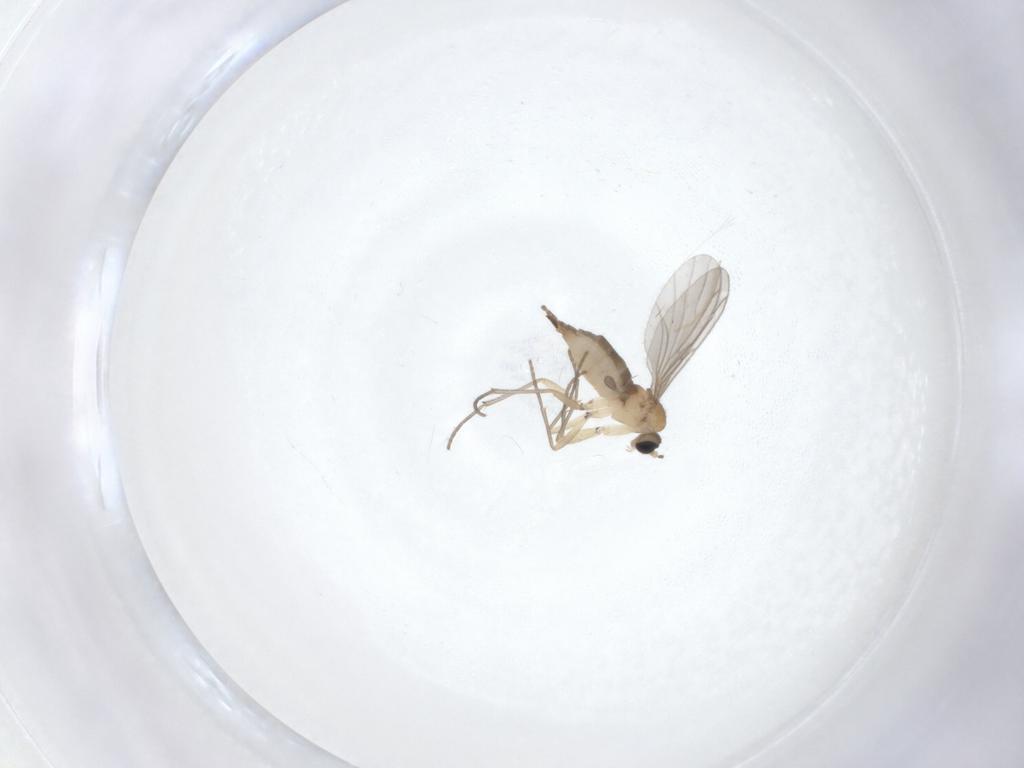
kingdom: Animalia
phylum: Arthropoda
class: Insecta
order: Diptera
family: Sciaridae
